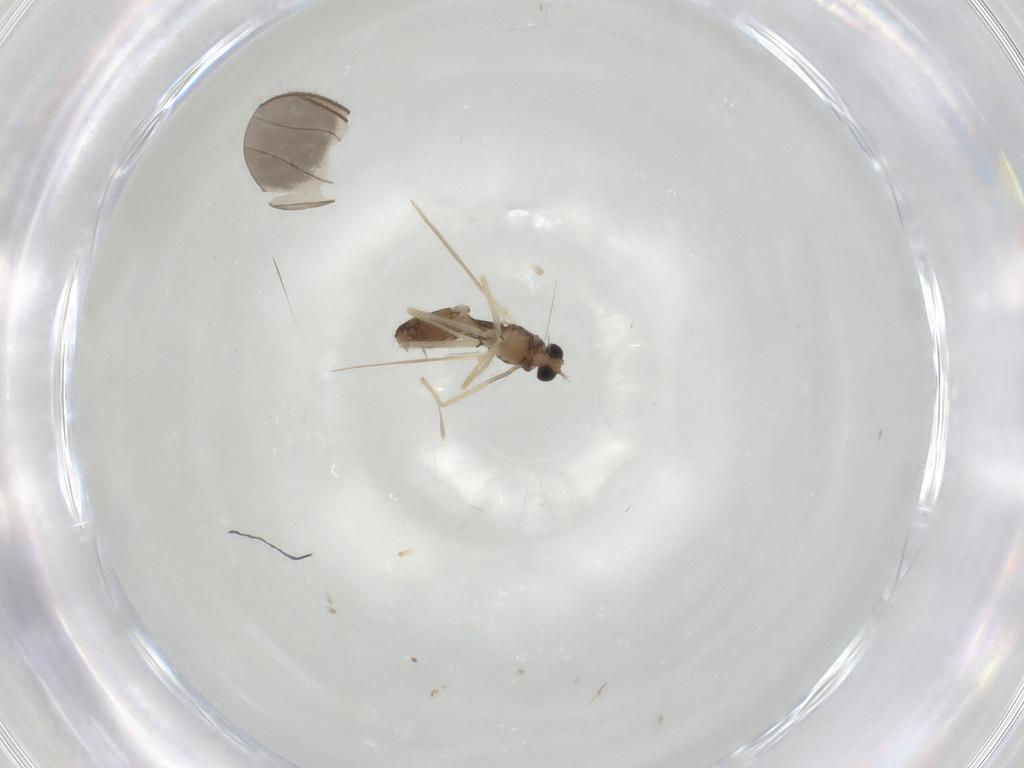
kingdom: Animalia
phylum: Arthropoda
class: Insecta
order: Diptera
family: Chironomidae
